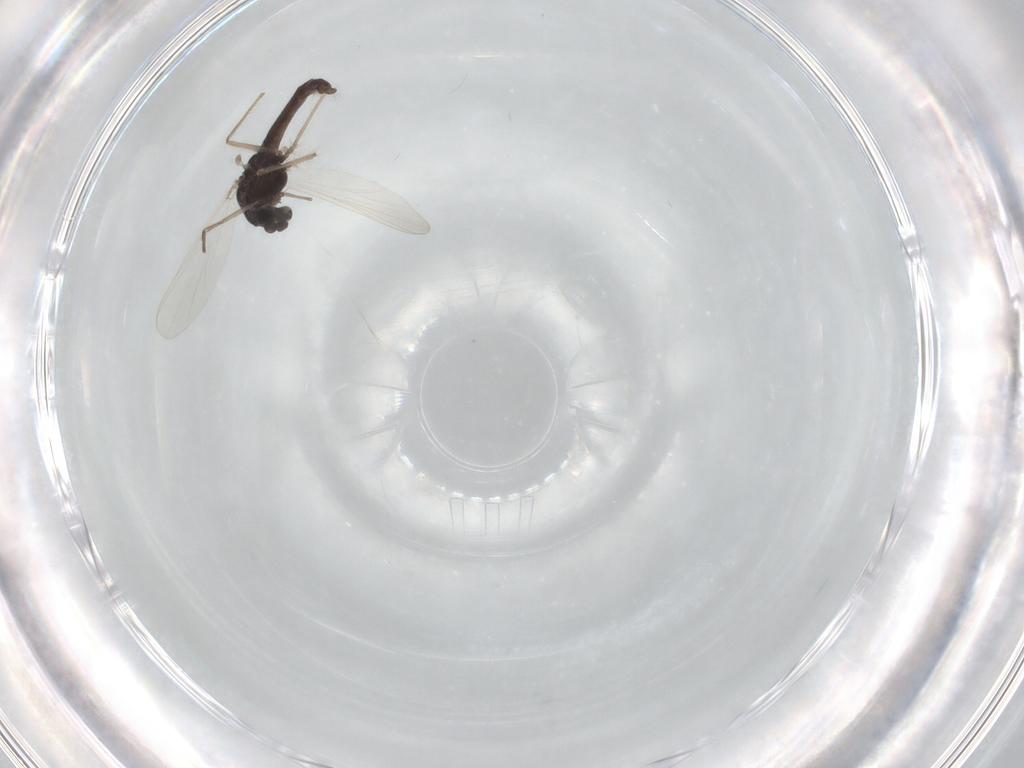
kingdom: Animalia
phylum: Arthropoda
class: Insecta
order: Diptera
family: Chironomidae
